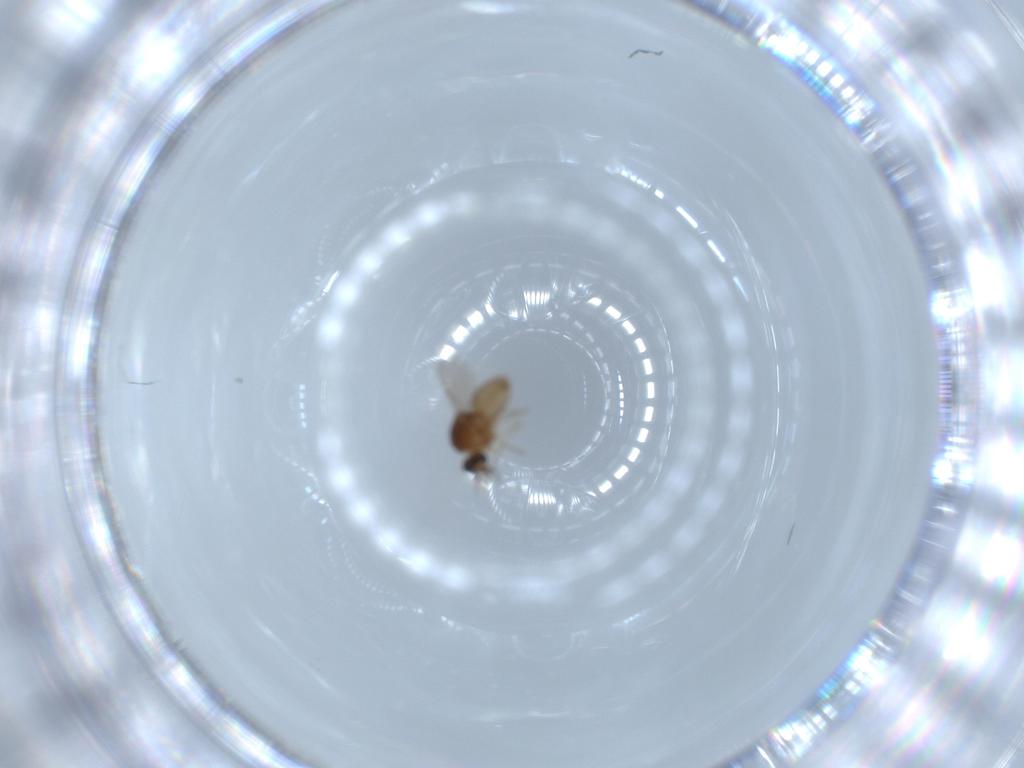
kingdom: Animalia
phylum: Arthropoda
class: Insecta
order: Diptera
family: Ceratopogonidae
